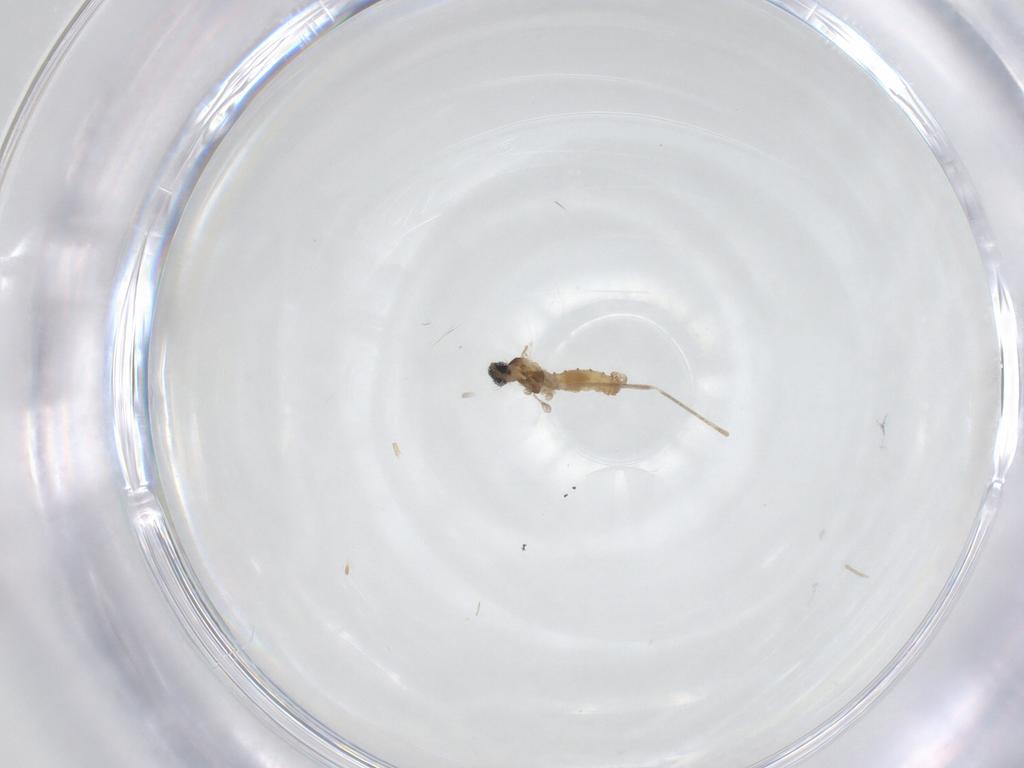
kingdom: Animalia
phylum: Arthropoda
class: Insecta
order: Diptera
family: Cecidomyiidae
